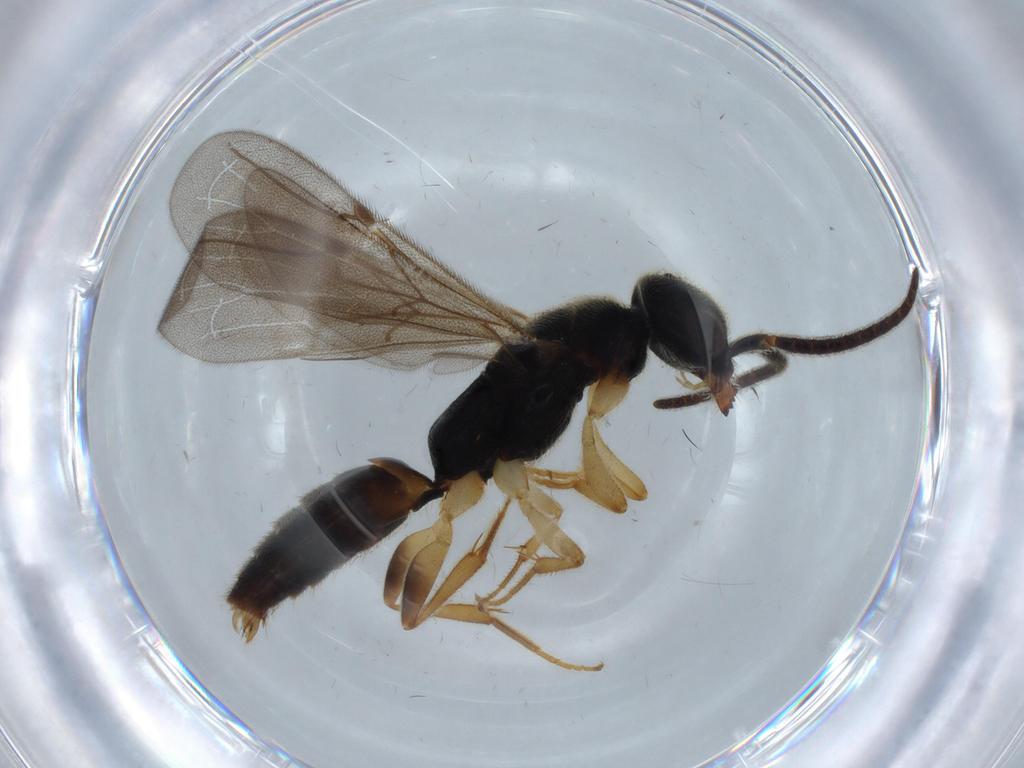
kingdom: Animalia
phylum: Arthropoda
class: Insecta
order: Hymenoptera
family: Bethylidae
